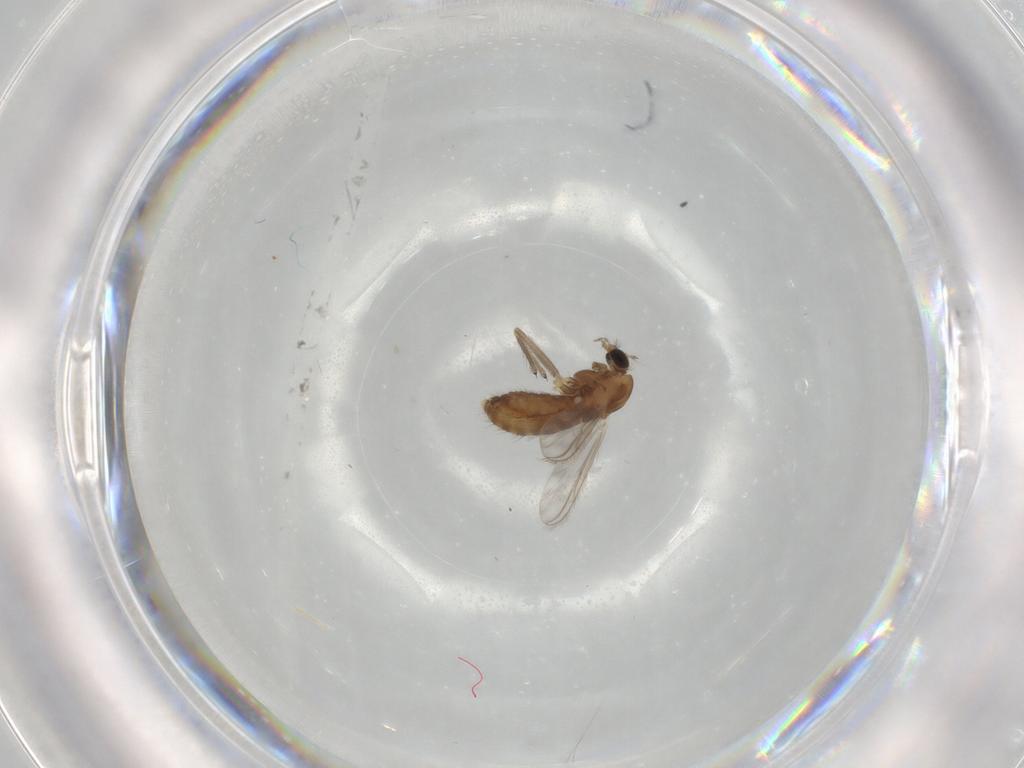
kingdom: Animalia
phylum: Arthropoda
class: Insecta
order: Diptera
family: Chironomidae
